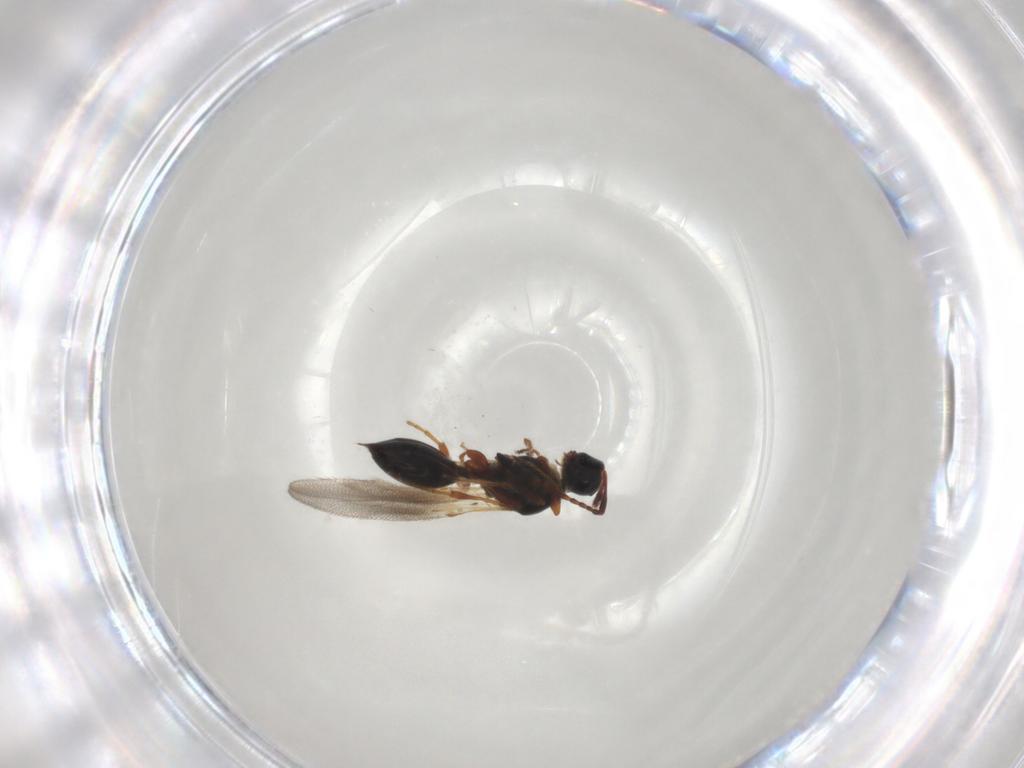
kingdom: Animalia
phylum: Arthropoda
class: Insecta
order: Hymenoptera
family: Diapriidae
